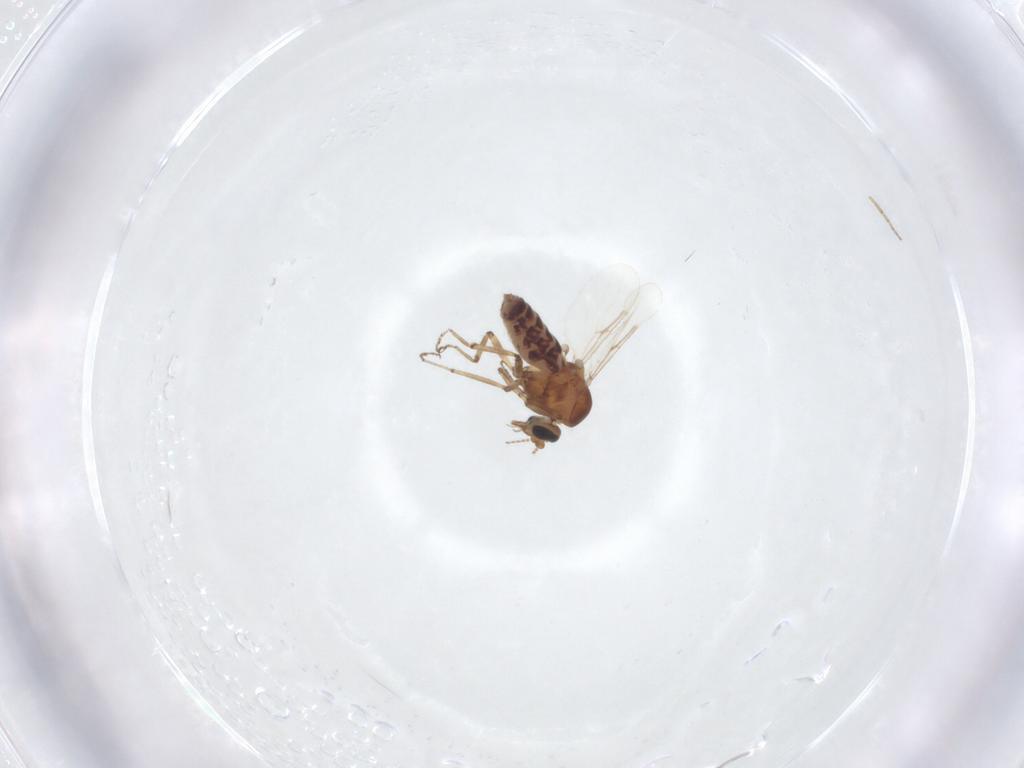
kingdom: Animalia
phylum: Arthropoda
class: Insecta
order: Diptera
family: Ceratopogonidae
